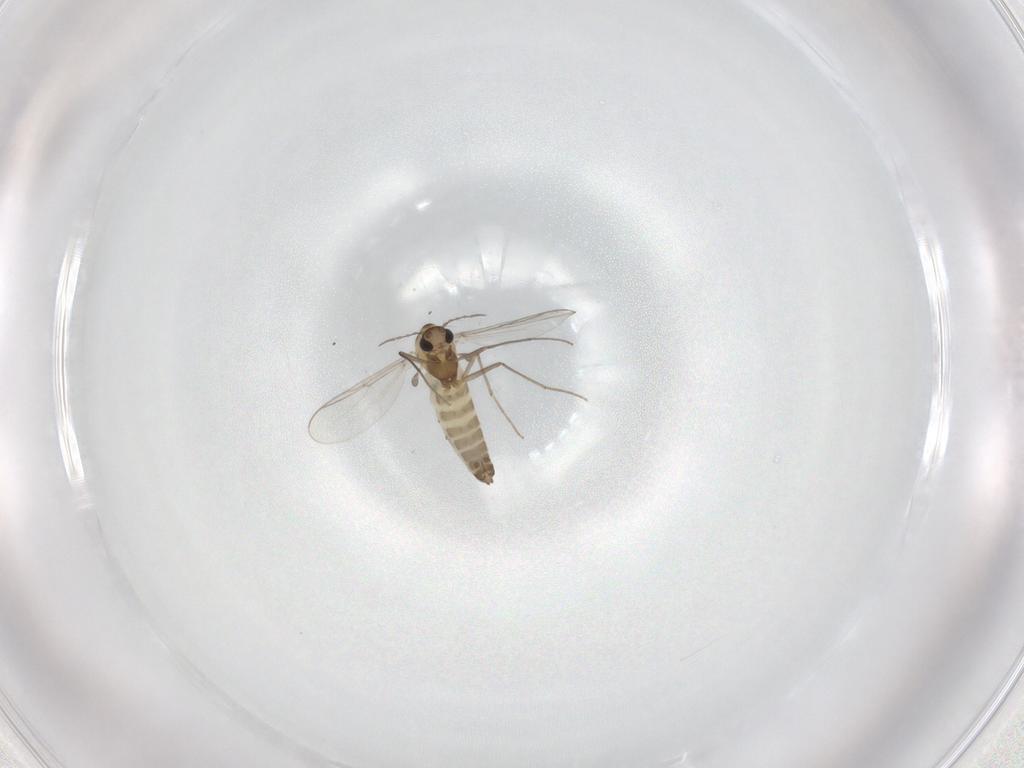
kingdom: Animalia
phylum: Arthropoda
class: Insecta
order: Diptera
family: Chironomidae
